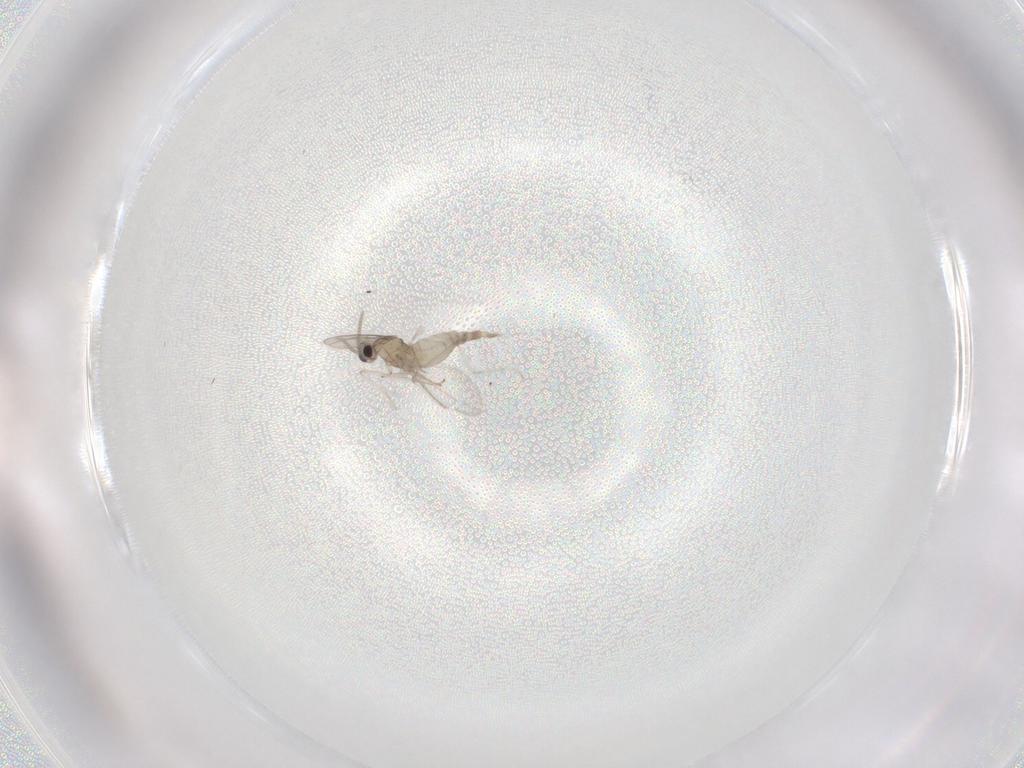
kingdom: Animalia
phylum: Arthropoda
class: Insecta
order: Diptera
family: Cecidomyiidae
